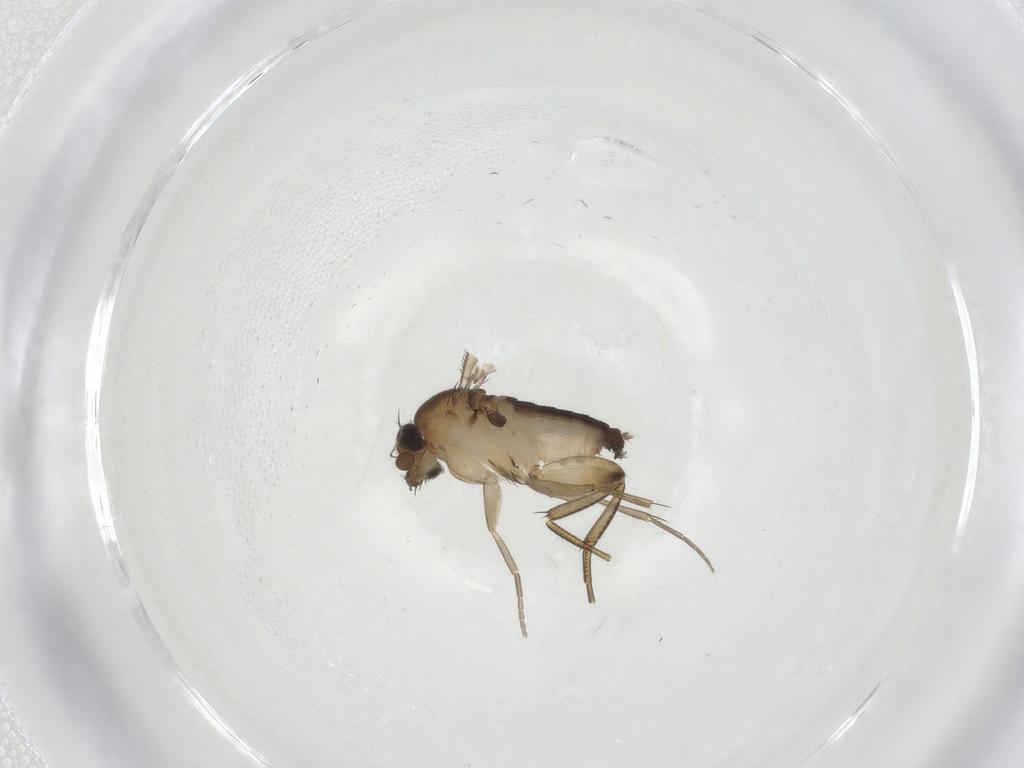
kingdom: Animalia
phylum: Arthropoda
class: Insecta
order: Diptera
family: Phoridae
